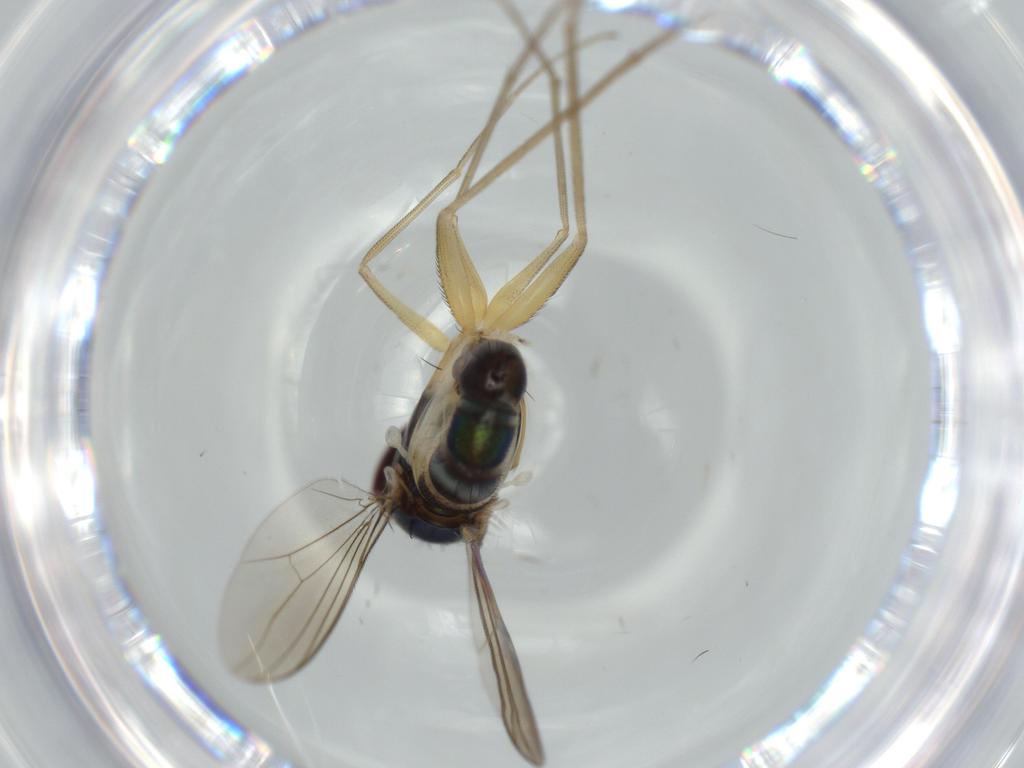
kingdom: Animalia
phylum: Arthropoda
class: Insecta
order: Diptera
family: Dolichopodidae
